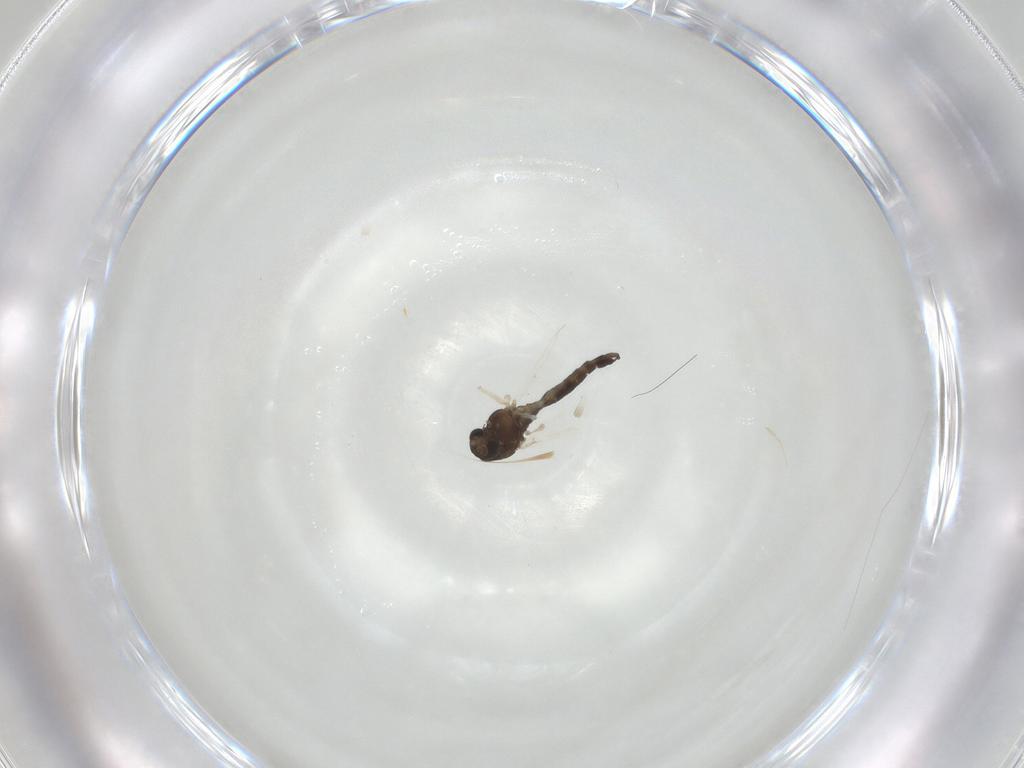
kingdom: Animalia
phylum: Arthropoda
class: Insecta
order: Diptera
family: Chironomidae
